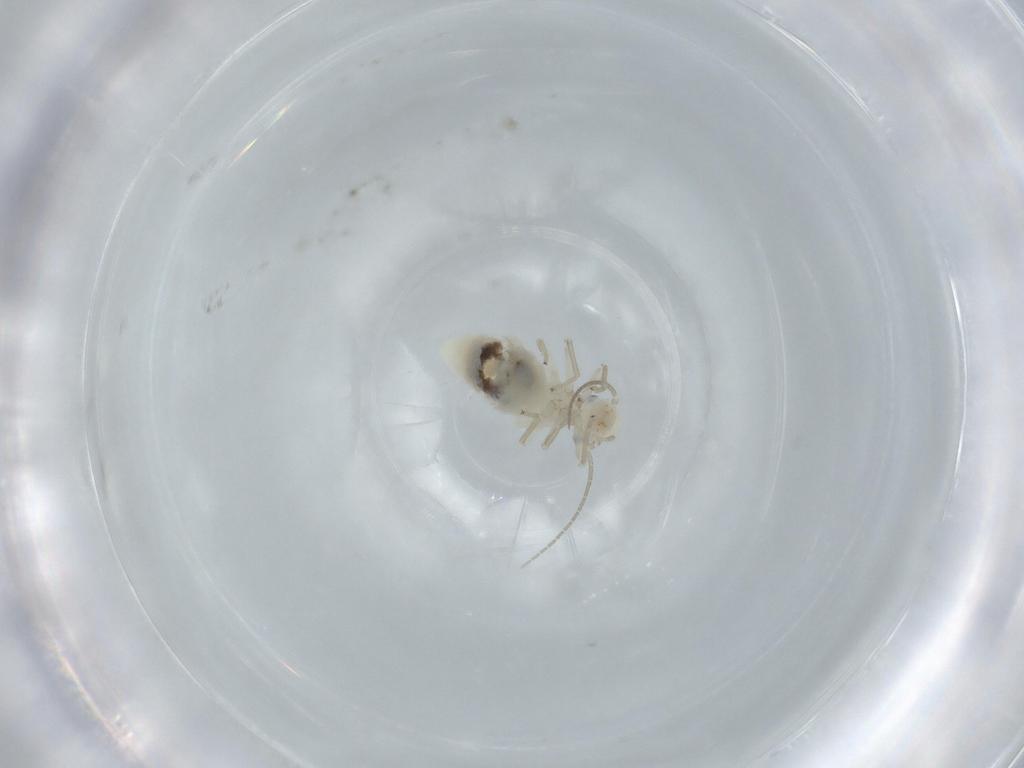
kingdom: Animalia
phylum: Arthropoda
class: Insecta
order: Psocodea
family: Caeciliusidae
